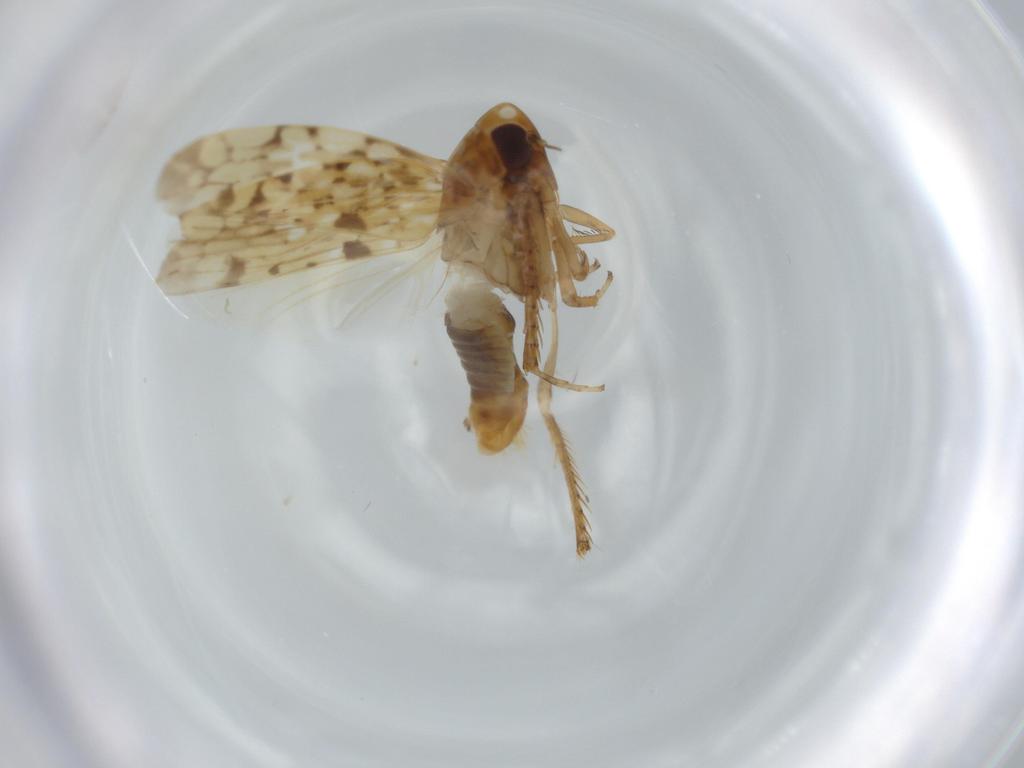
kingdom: Animalia
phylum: Arthropoda
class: Insecta
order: Hemiptera
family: Cicadellidae
